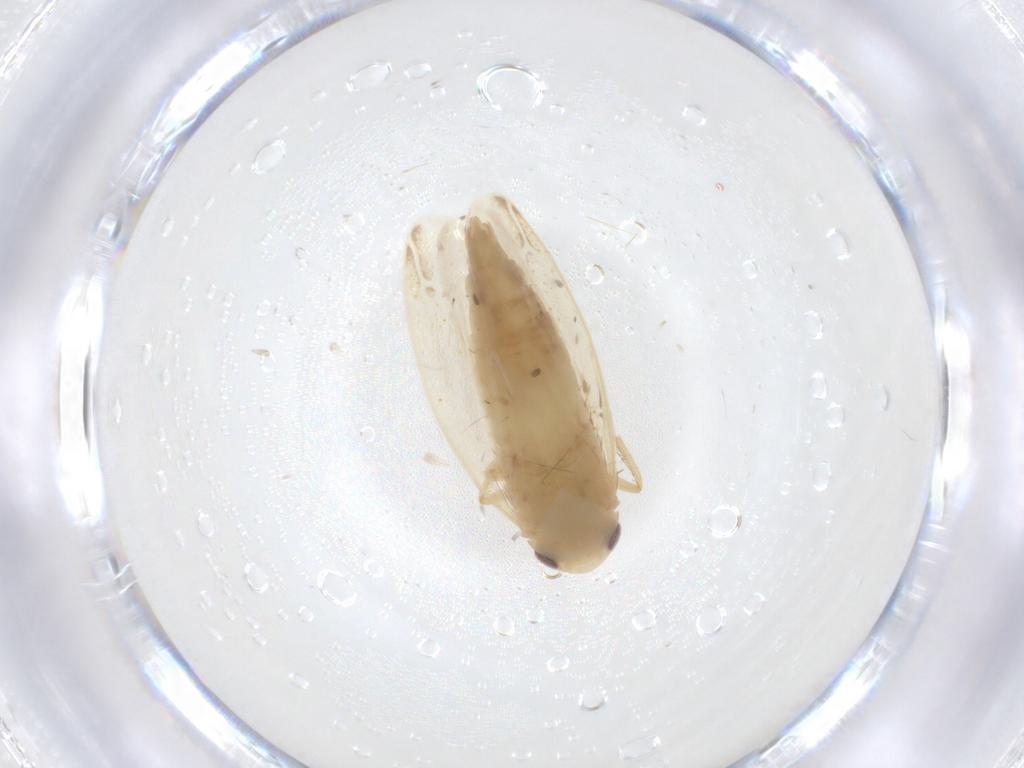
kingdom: Animalia
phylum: Arthropoda
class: Insecta
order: Hemiptera
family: Cicadellidae
